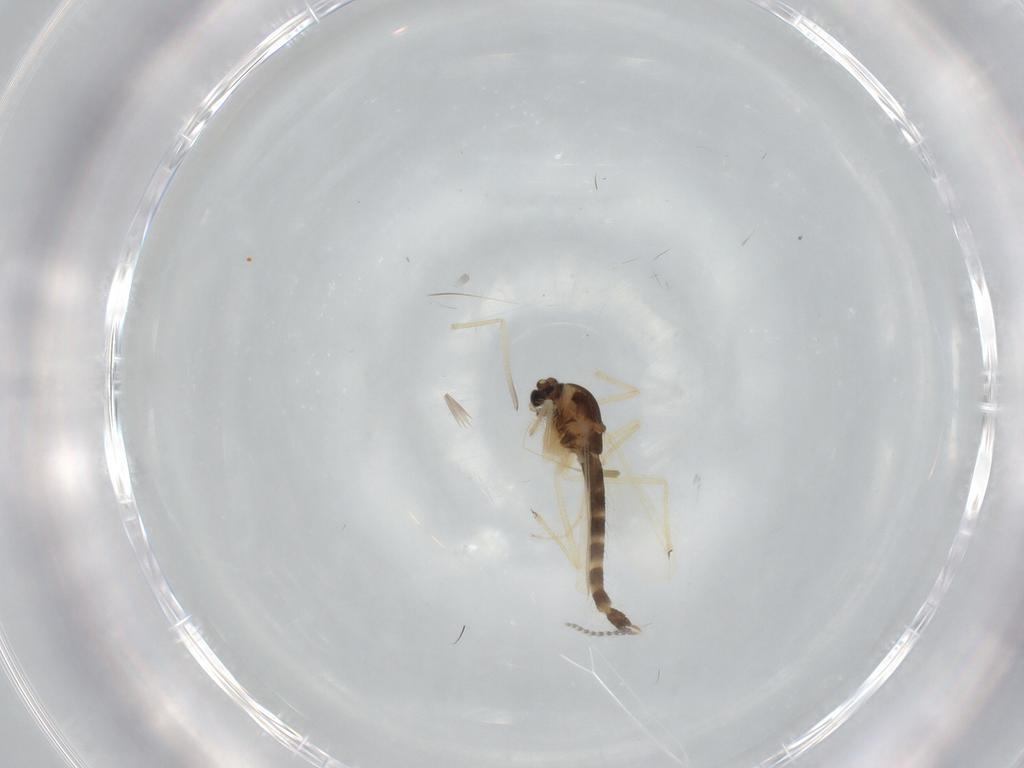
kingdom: Animalia
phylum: Arthropoda
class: Insecta
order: Diptera
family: Chironomidae
